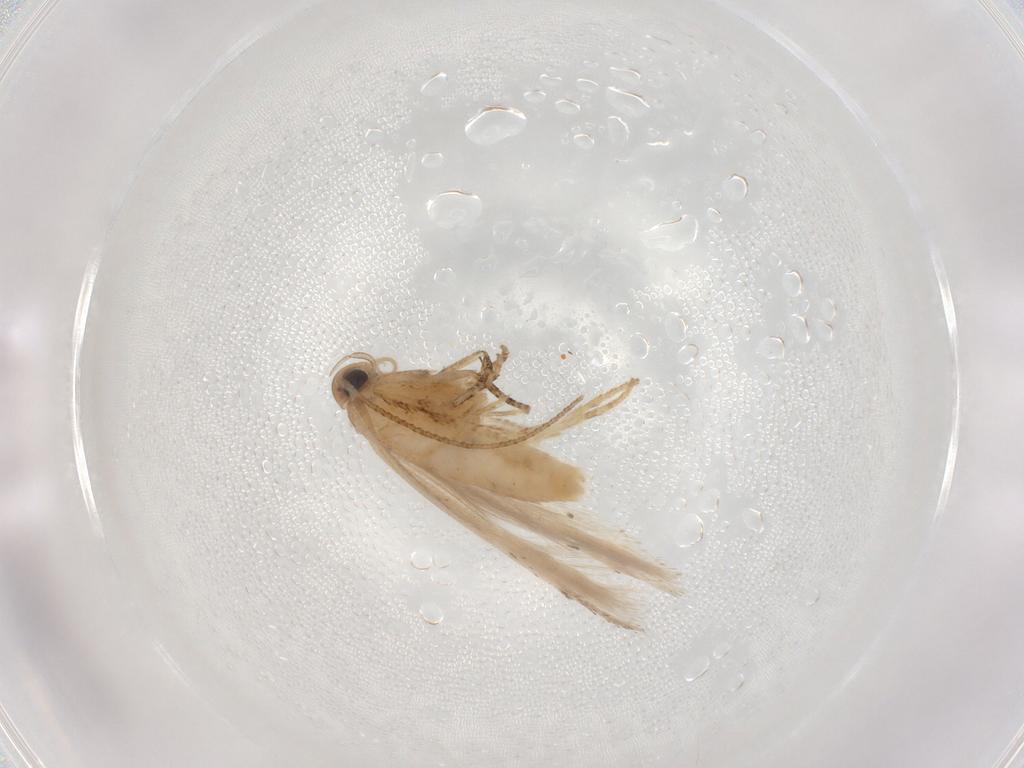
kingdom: Animalia
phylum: Arthropoda
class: Insecta
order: Lepidoptera
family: Gelechiidae
